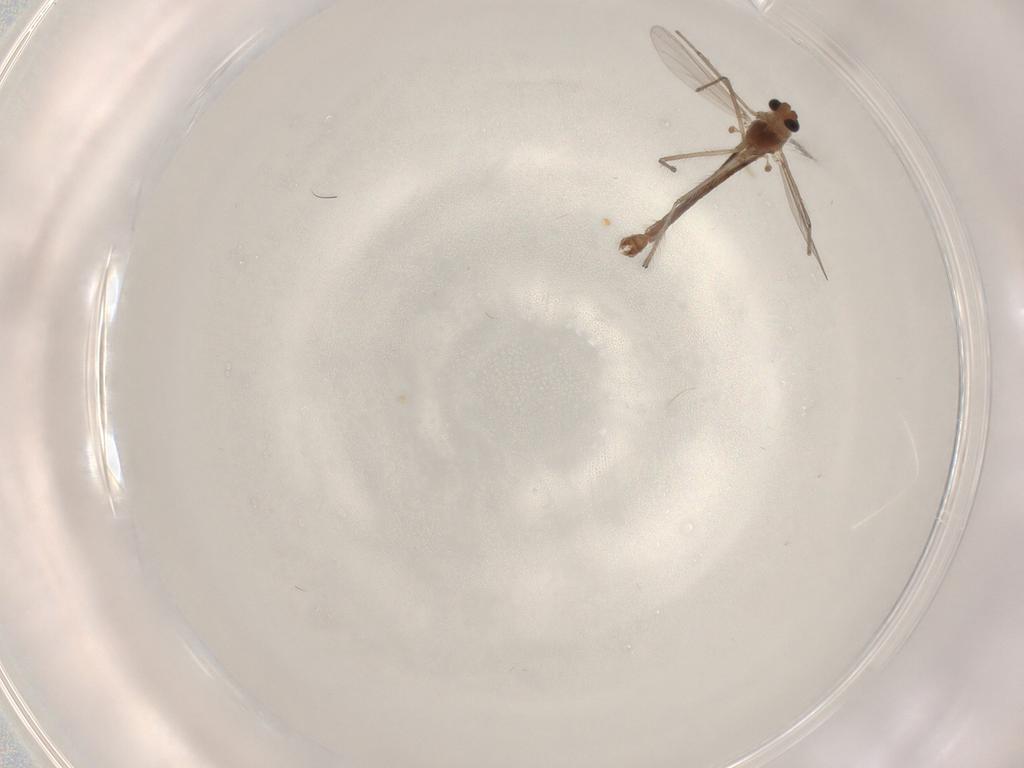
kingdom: Animalia
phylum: Arthropoda
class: Insecta
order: Diptera
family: Chironomidae
